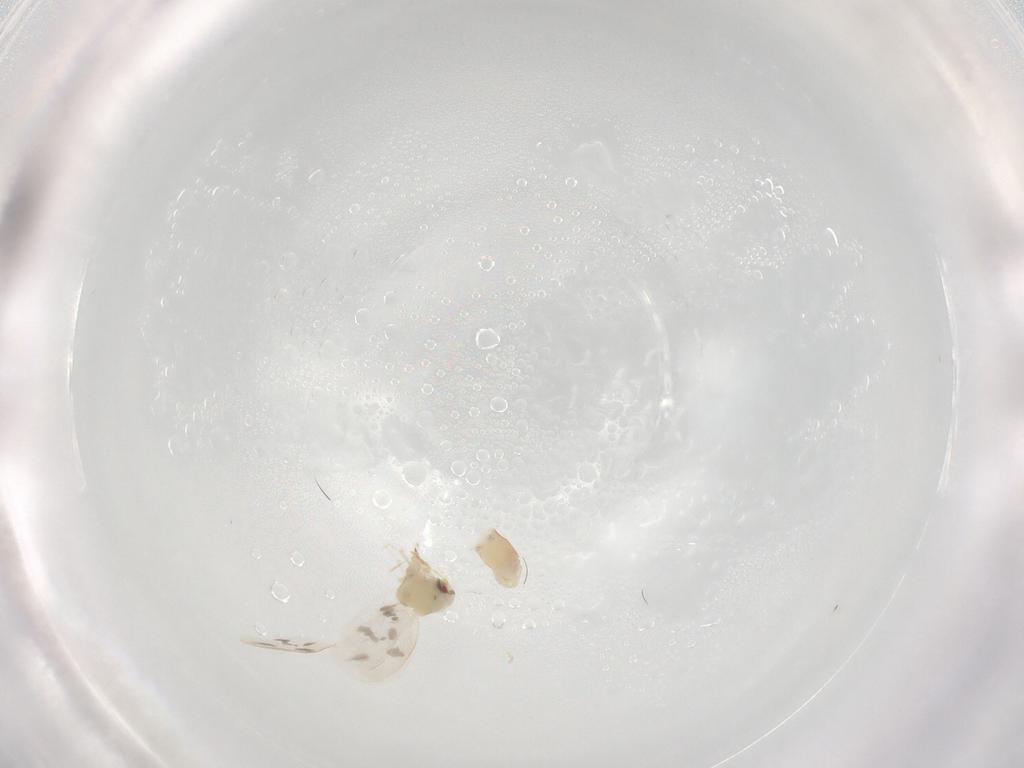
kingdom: Animalia
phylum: Arthropoda
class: Insecta
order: Hemiptera
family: Aleyrodidae
